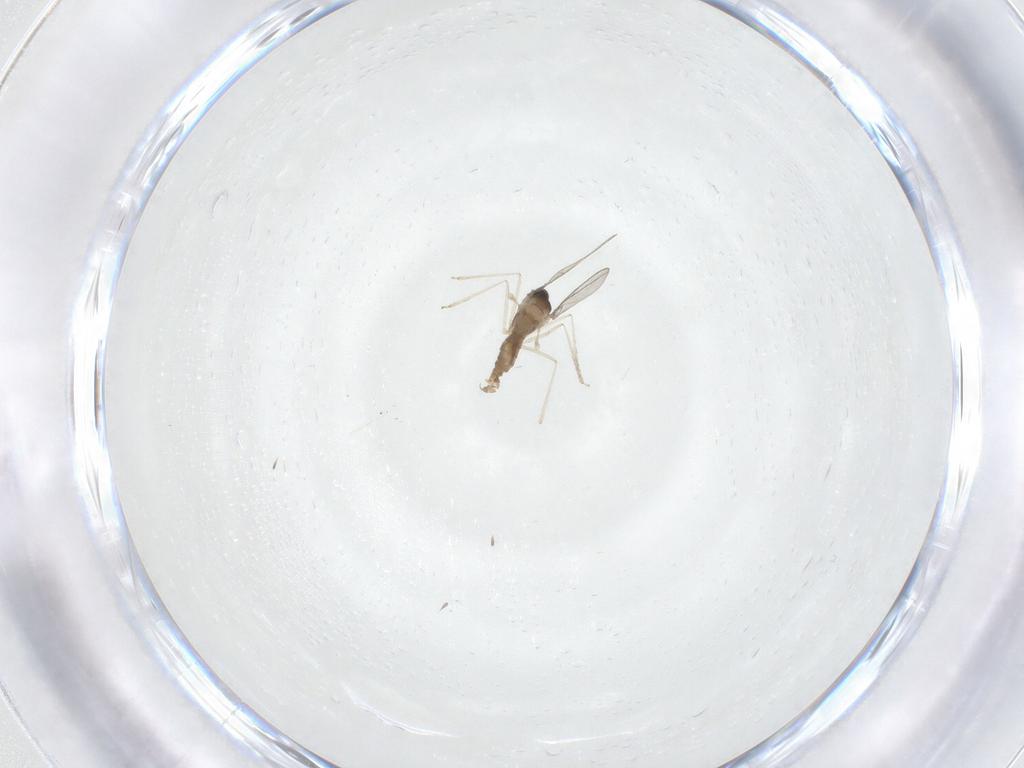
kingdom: Animalia
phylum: Arthropoda
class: Insecta
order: Diptera
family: Cecidomyiidae
